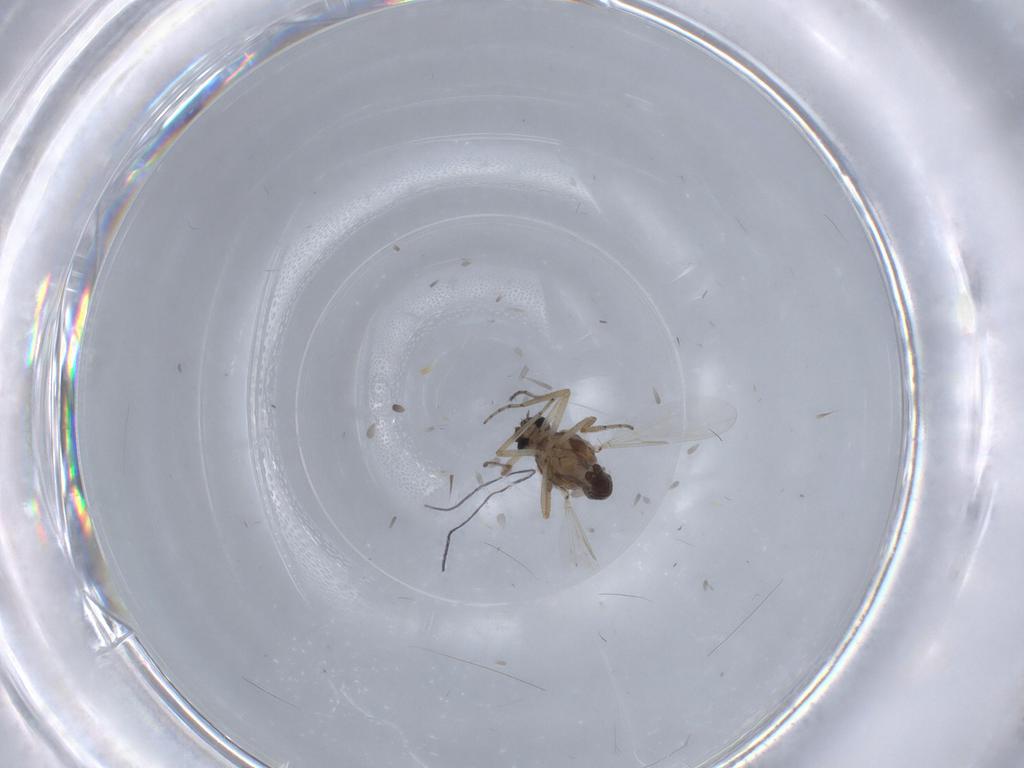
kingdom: Animalia
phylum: Arthropoda
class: Insecta
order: Diptera
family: Ceratopogonidae
